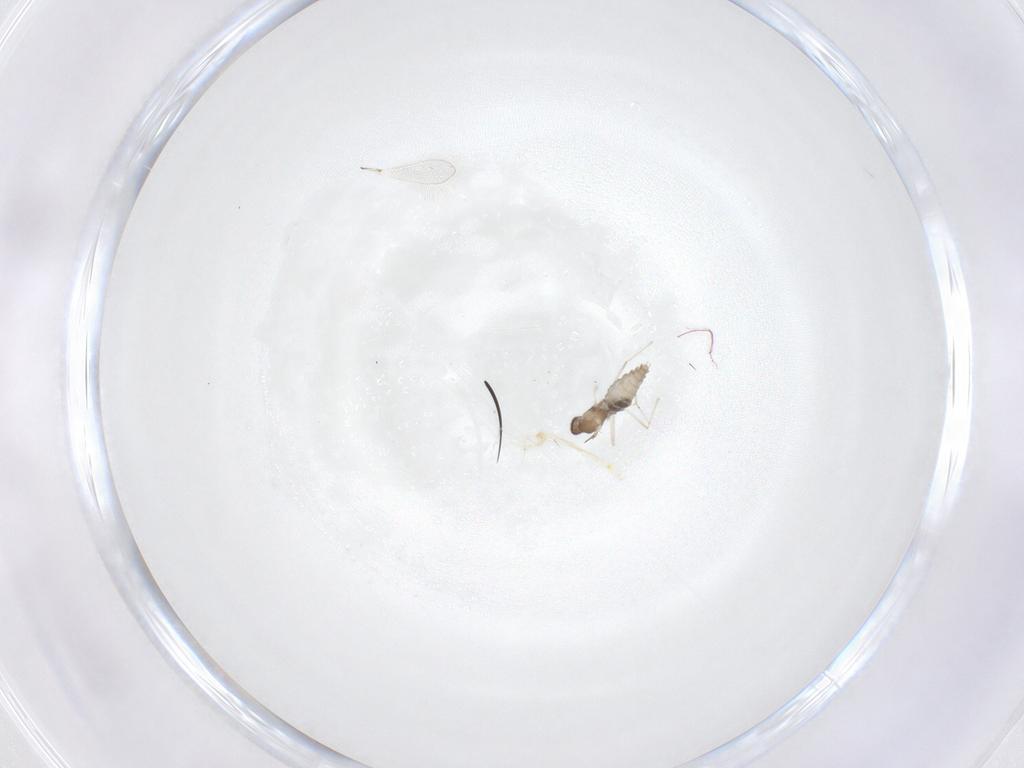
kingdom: Animalia
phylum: Arthropoda
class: Insecta
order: Diptera
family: Cecidomyiidae
